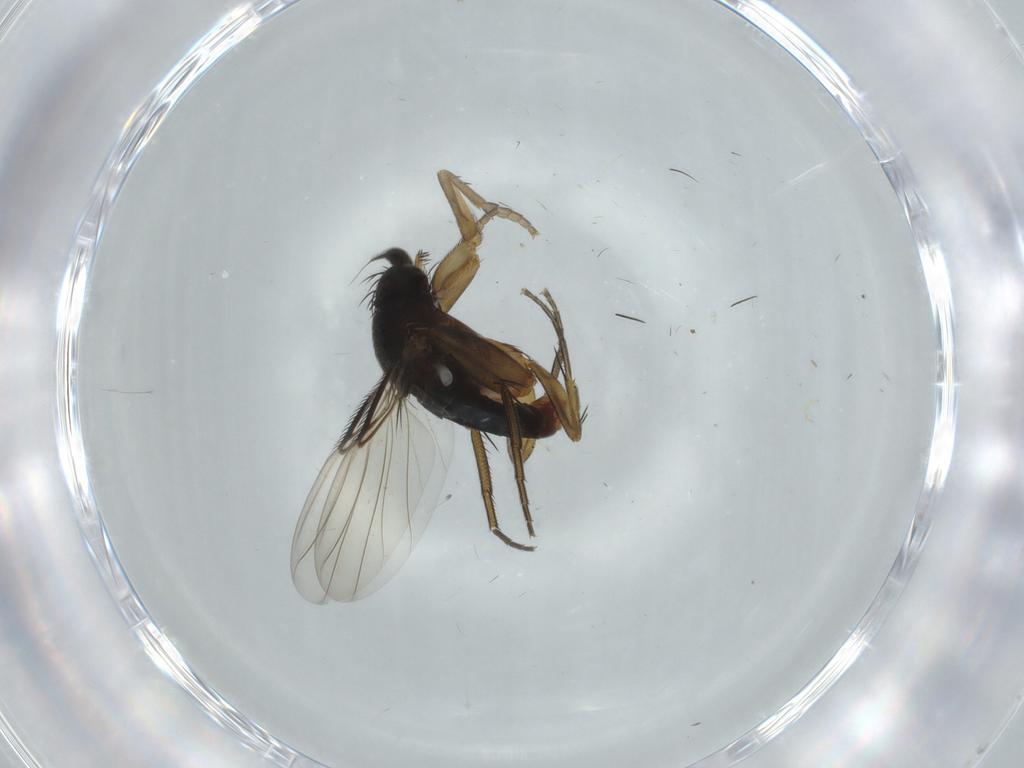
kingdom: Animalia
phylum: Arthropoda
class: Insecta
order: Diptera
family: Phoridae
